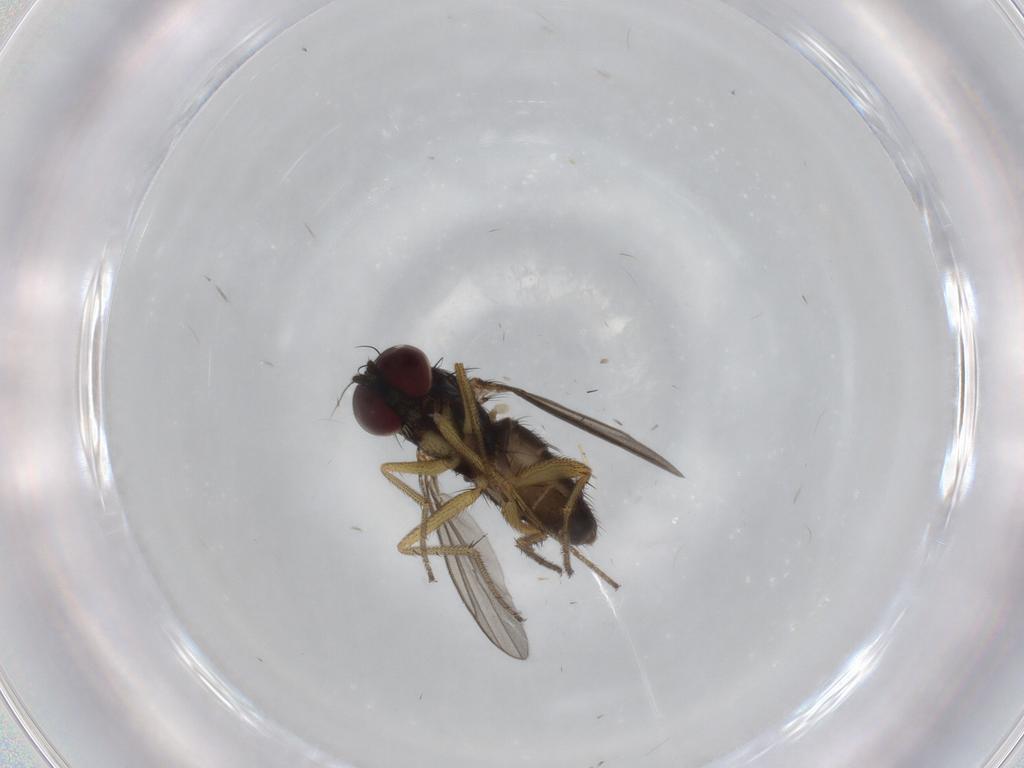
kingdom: Animalia
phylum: Arthropoda
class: Insecta
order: Diptera
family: Dolichopodidae
